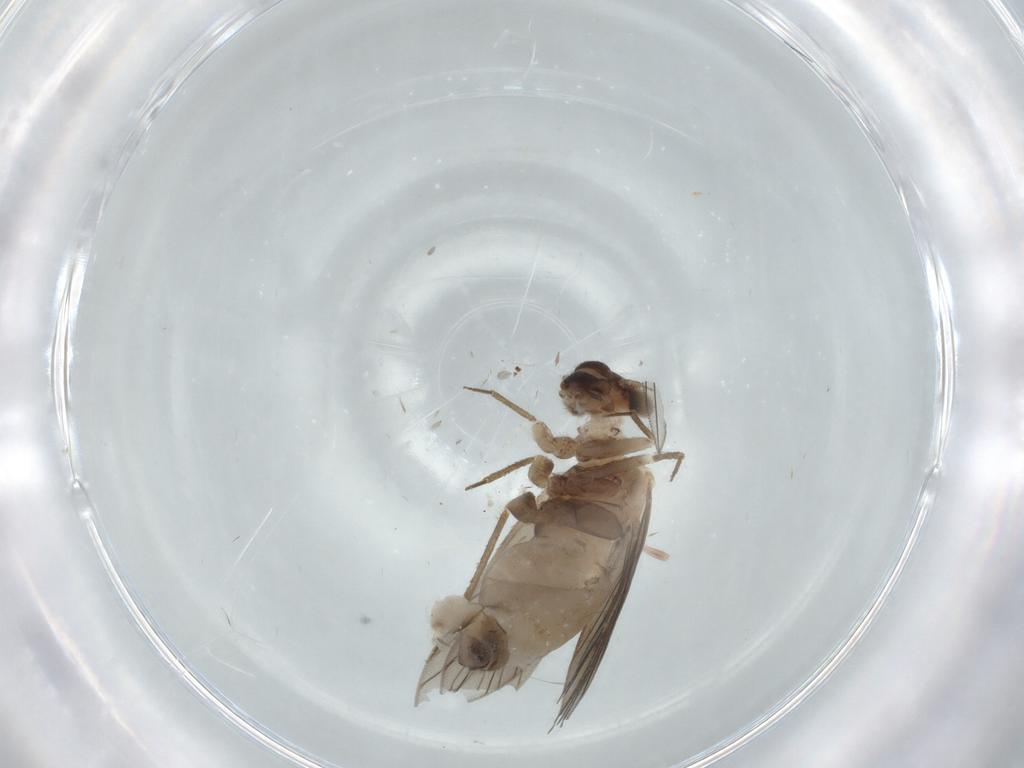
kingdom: Animalia
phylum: Arthropoda
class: Insecta
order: Psocodea
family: Lepidopsocidae
